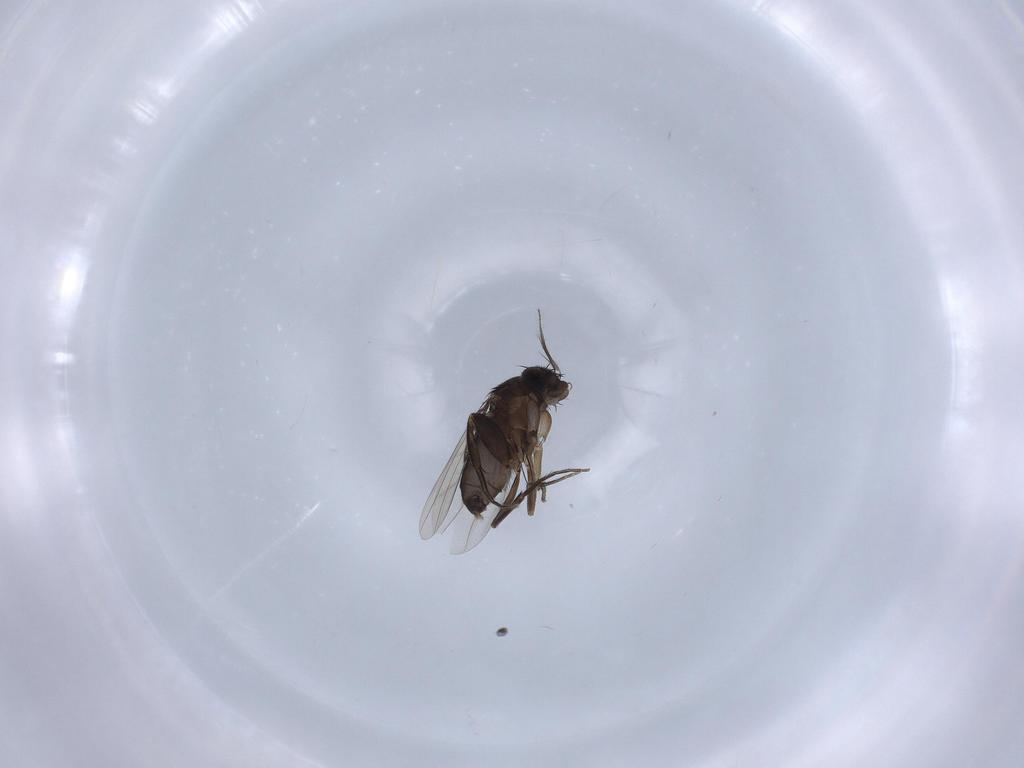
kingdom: Animalia
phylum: Arthropoda
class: Insecta
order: Diptera
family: Phoridae
